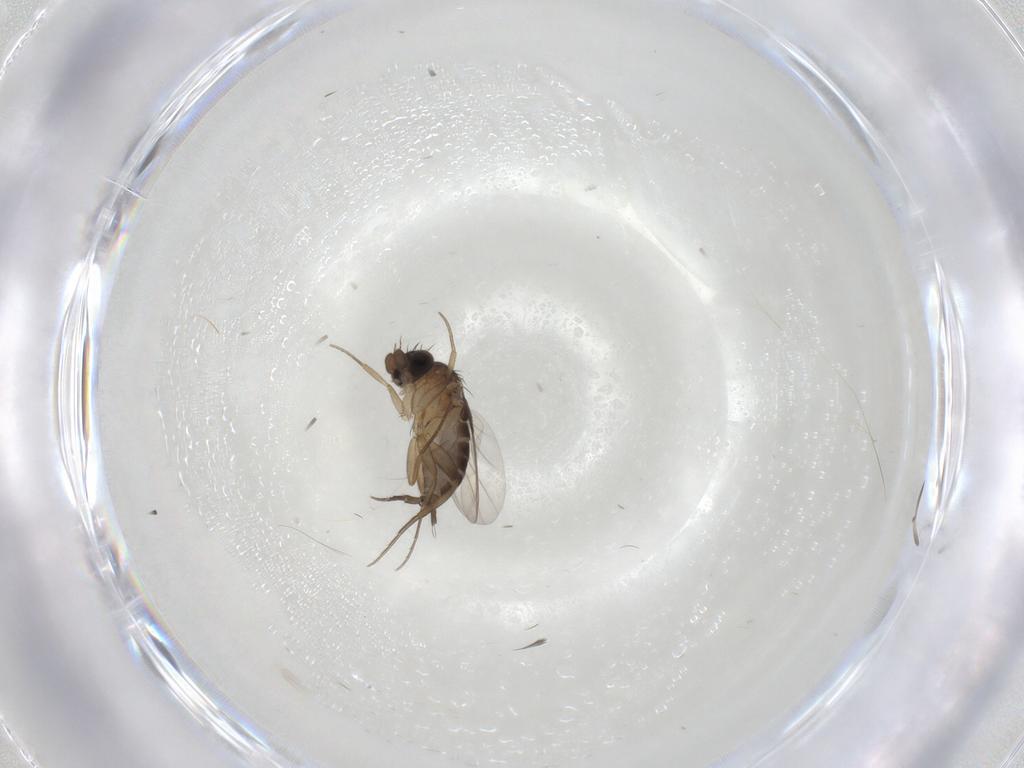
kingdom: Animalia
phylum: Arthropoda
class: Insecta
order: Diptera
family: Phoridae
